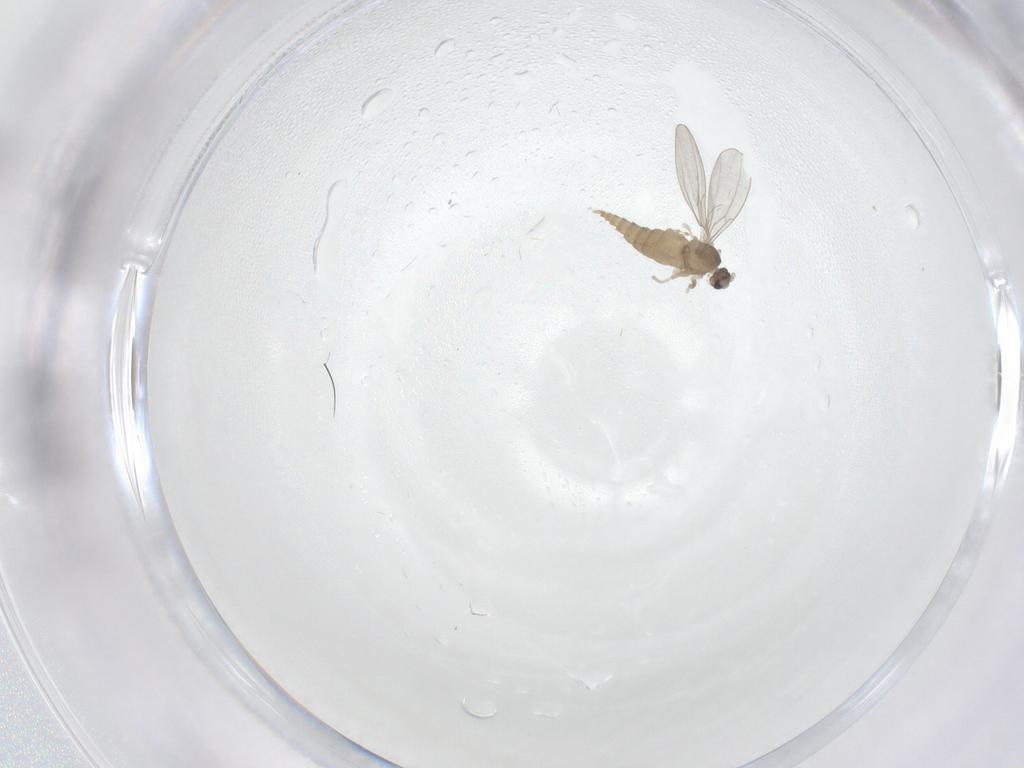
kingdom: Animalia
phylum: Arthropoda
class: Insecta
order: Diptera
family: Cecidomyiidae
